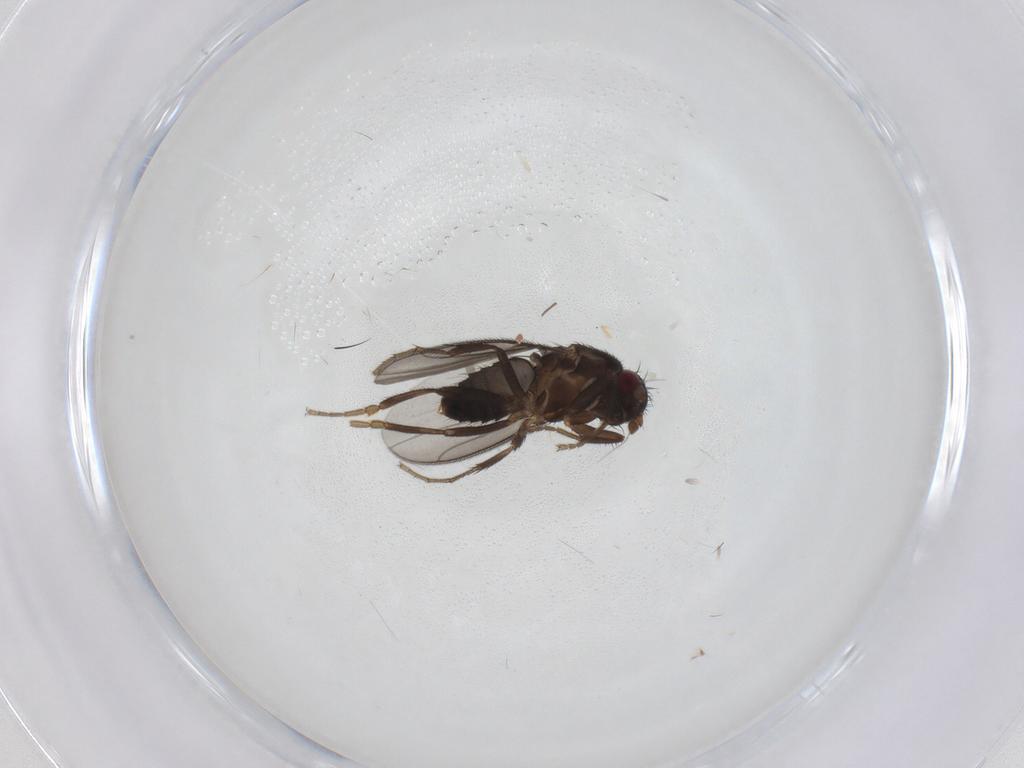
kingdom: Animalia
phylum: Arthropoda
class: Insecta
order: Diptera
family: Sphaeroceridae
